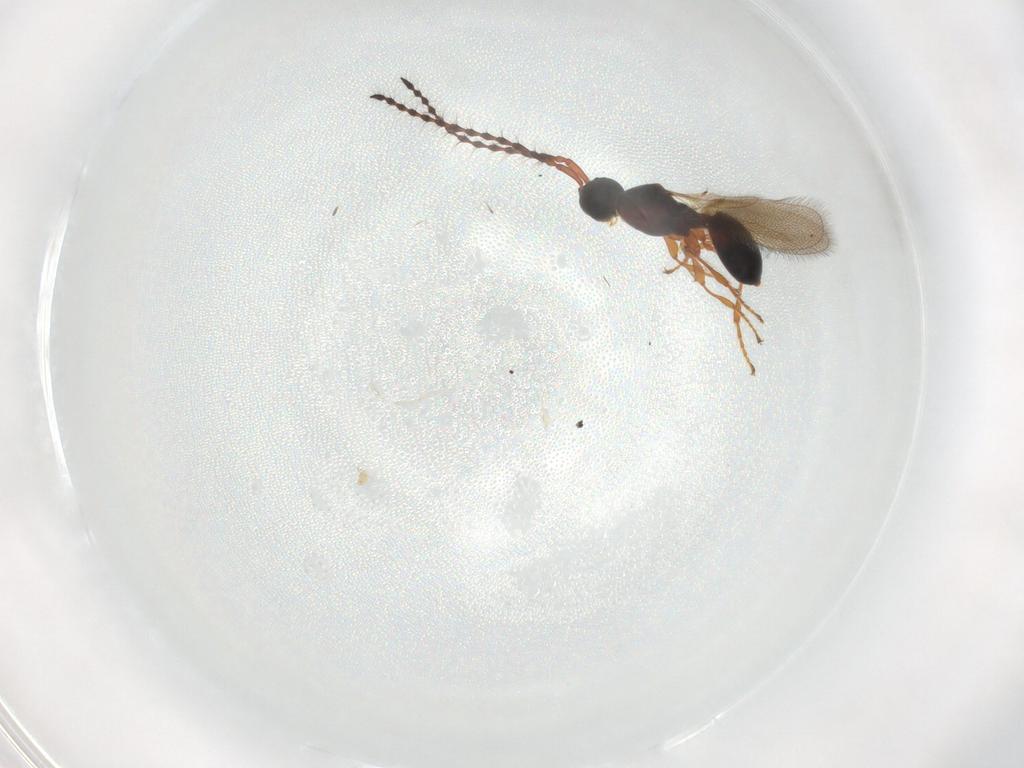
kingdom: Animalia
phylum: Arthropoda
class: Insecta
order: Hymenoptera
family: Diapriidae
